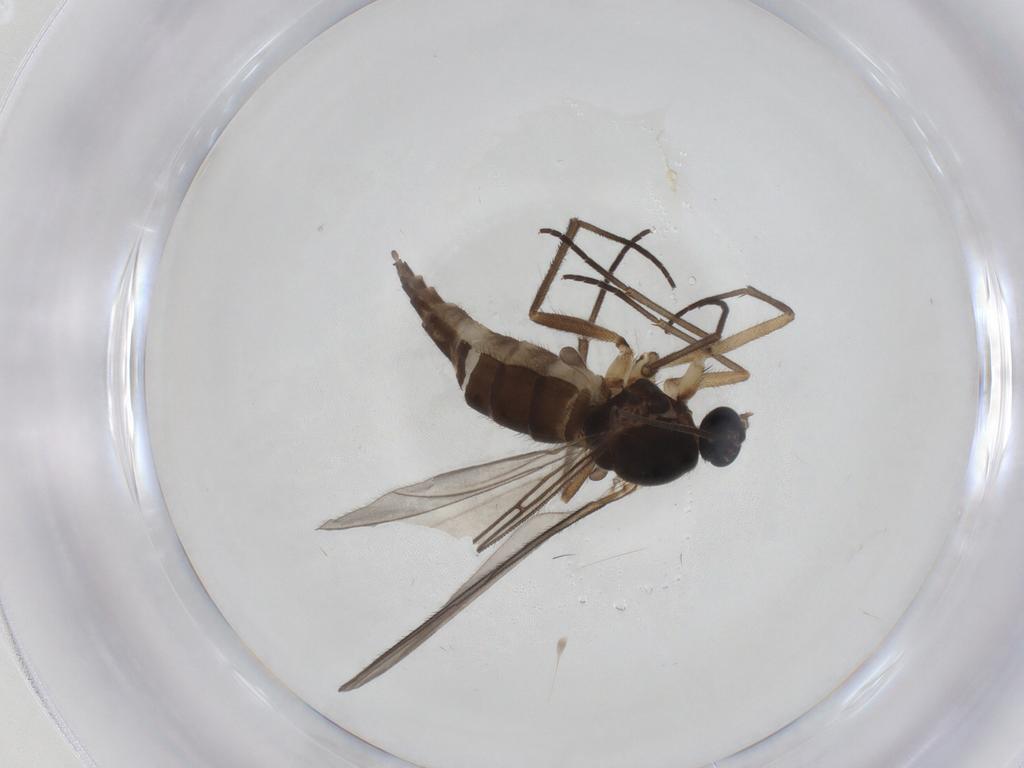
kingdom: Animalia
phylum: Arthropoda
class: Insecta
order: Diptera
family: Sciaridae
